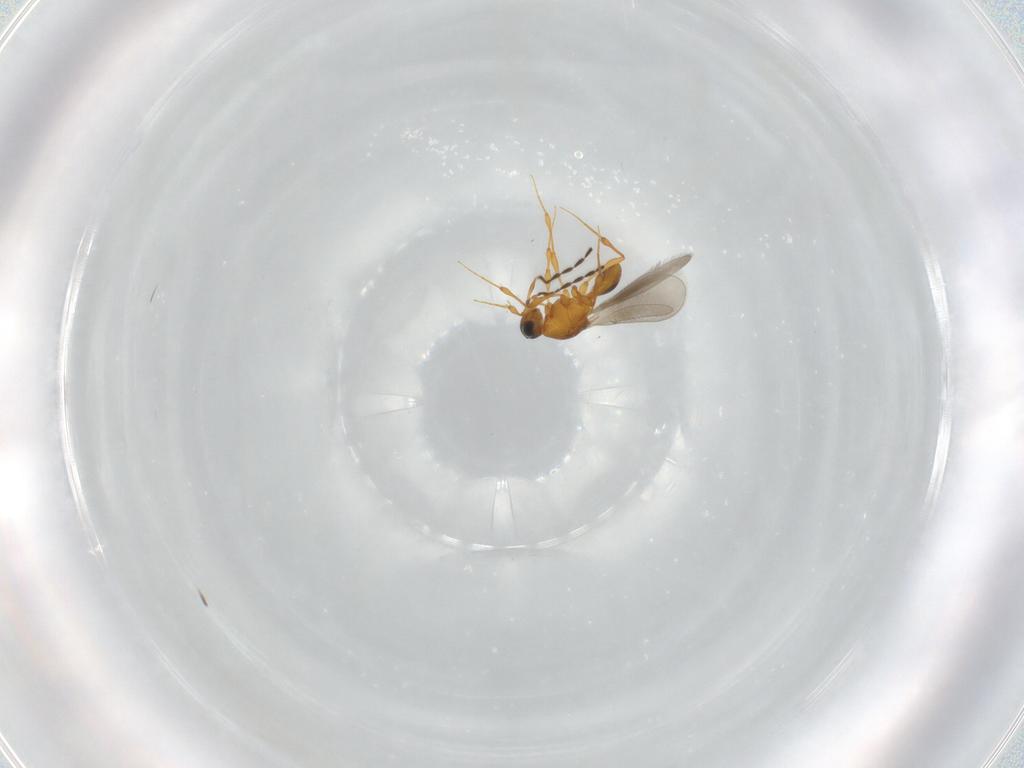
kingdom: Animalia
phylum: Arthropoda
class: Insecta
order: Hymenoptera
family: Platygastridae
